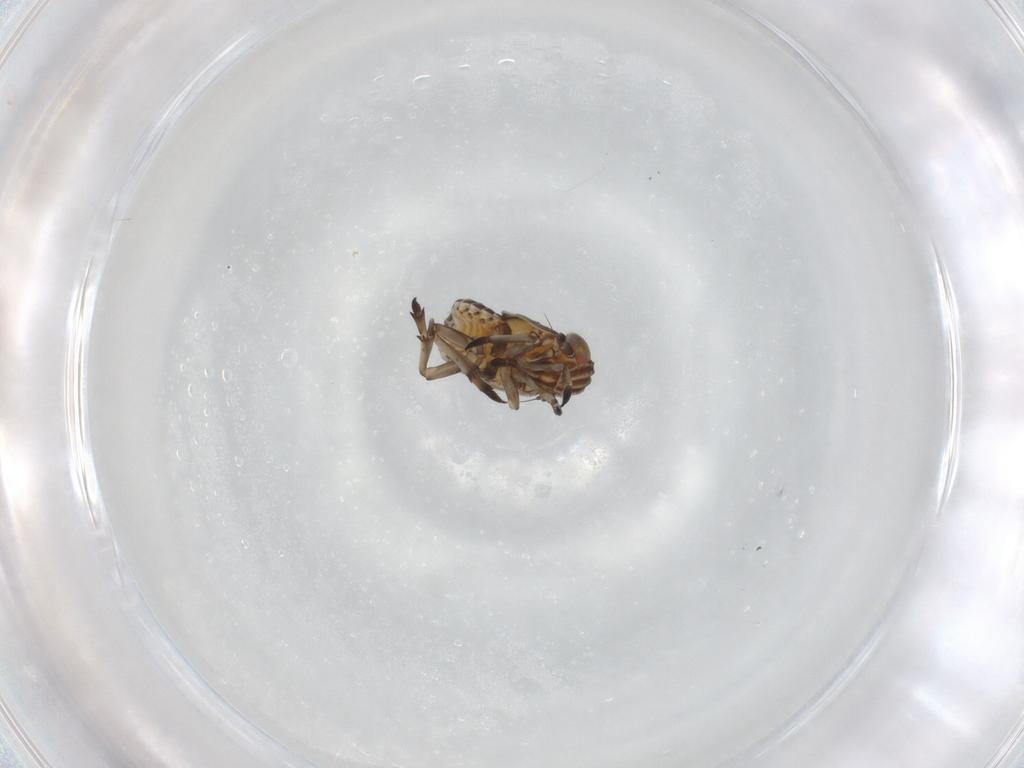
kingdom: Animalia
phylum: Arthropoda
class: Insecta
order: Hemiptera
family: Delphacidae
